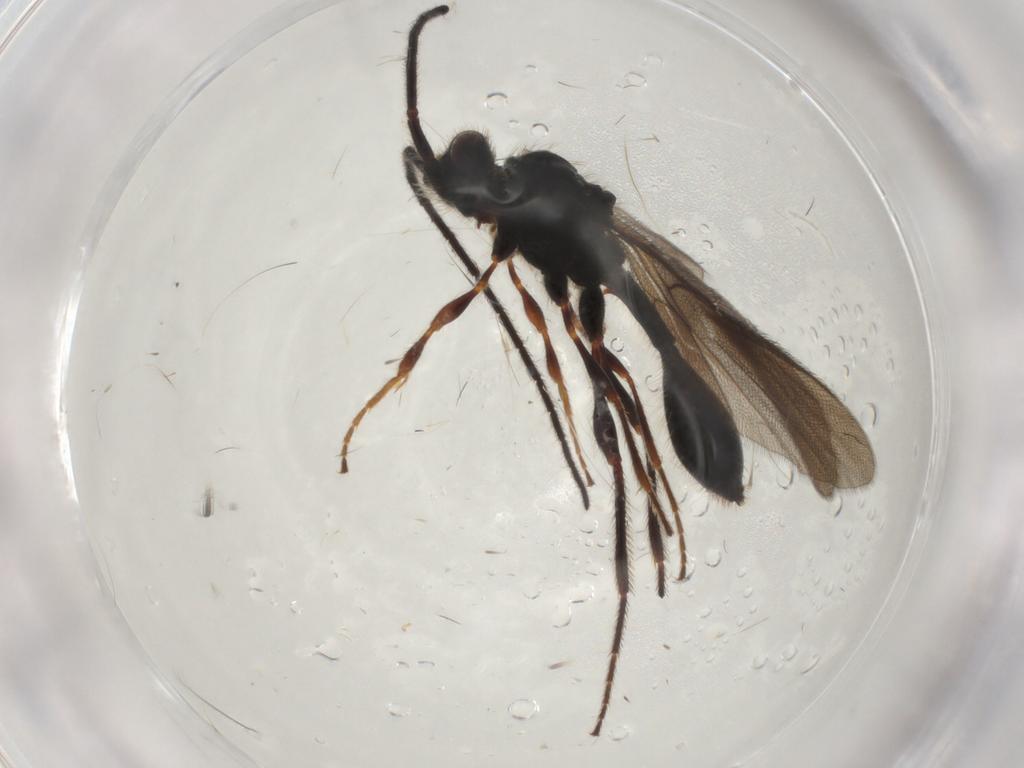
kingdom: Animalia
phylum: Arthropoda
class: Insecta
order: Hymenoptera
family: Diapriidae
